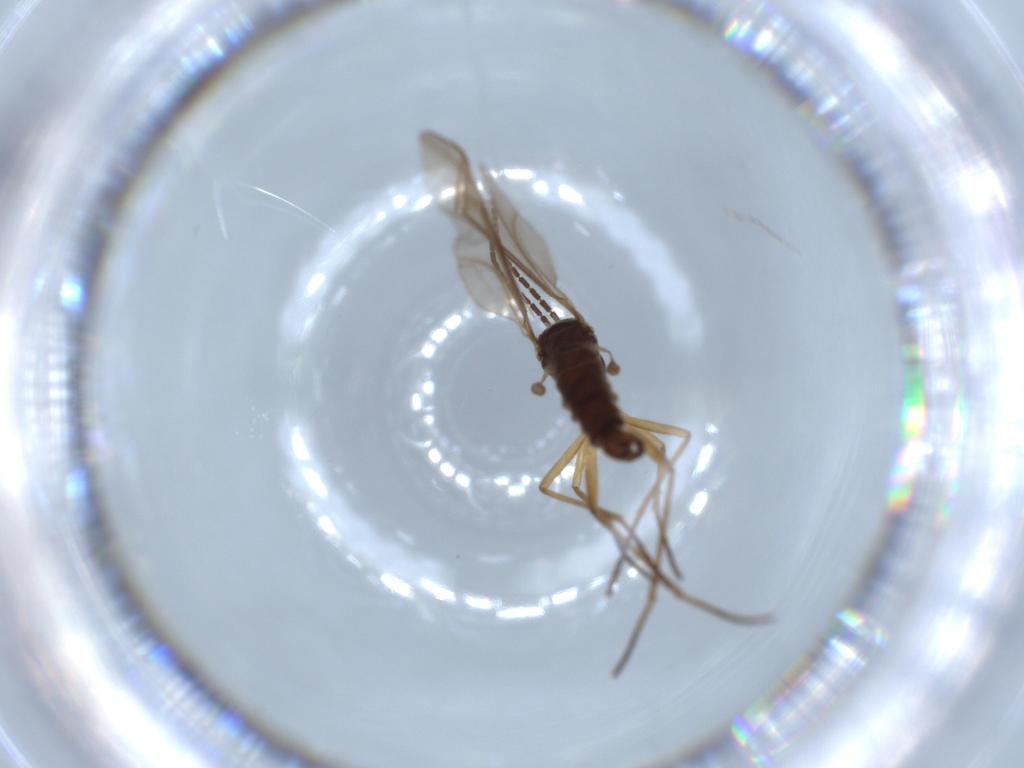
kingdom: Animalia
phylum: Arthropoda
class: Insecta
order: Diptera
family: Sciaridae
